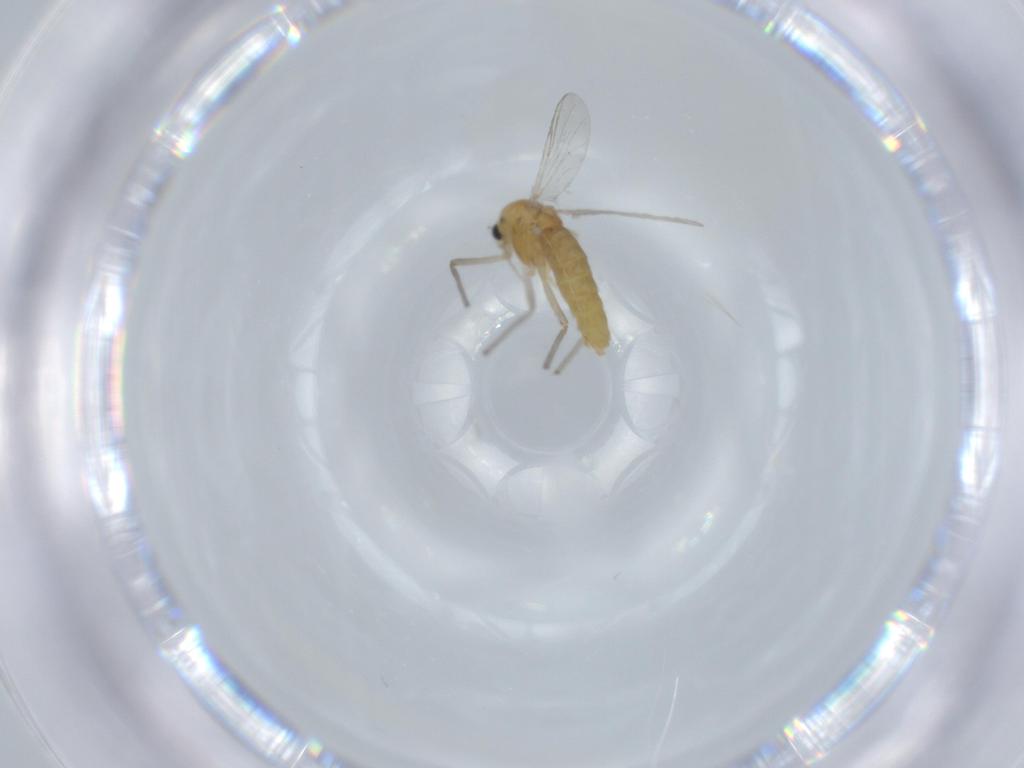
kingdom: Animalia
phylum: Arthropoda
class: Insecta
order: Diptera
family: Chironomidae
